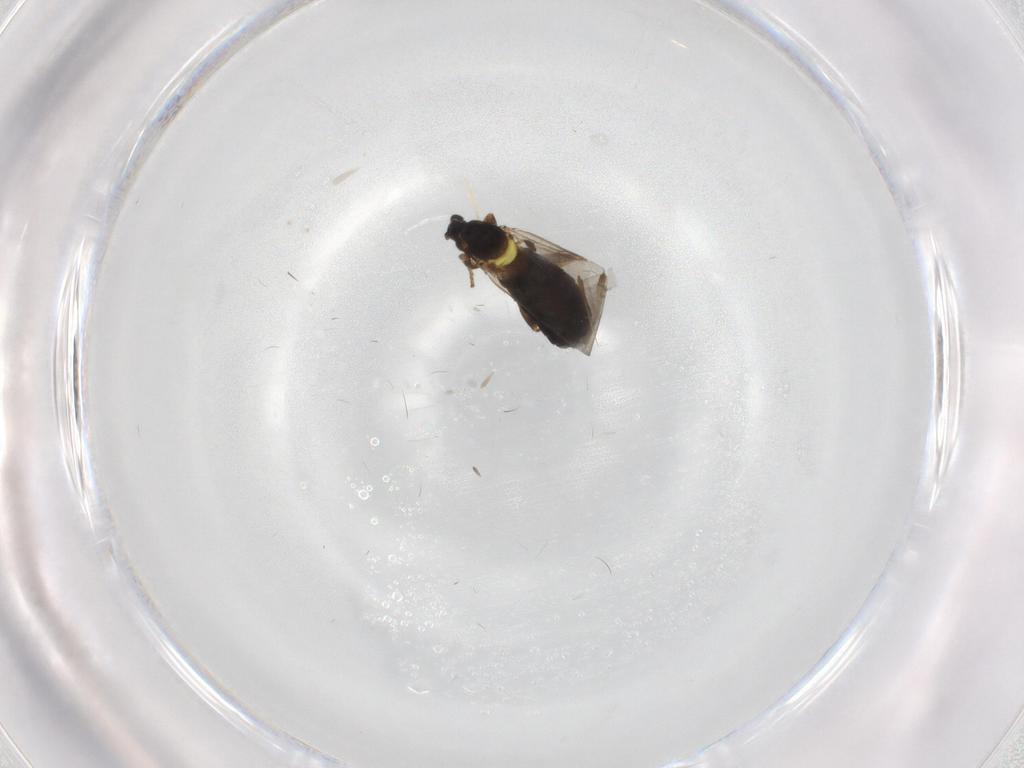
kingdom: Animalia
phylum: Arthropoda
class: Insecta
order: Diptera
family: Scatopsidae
